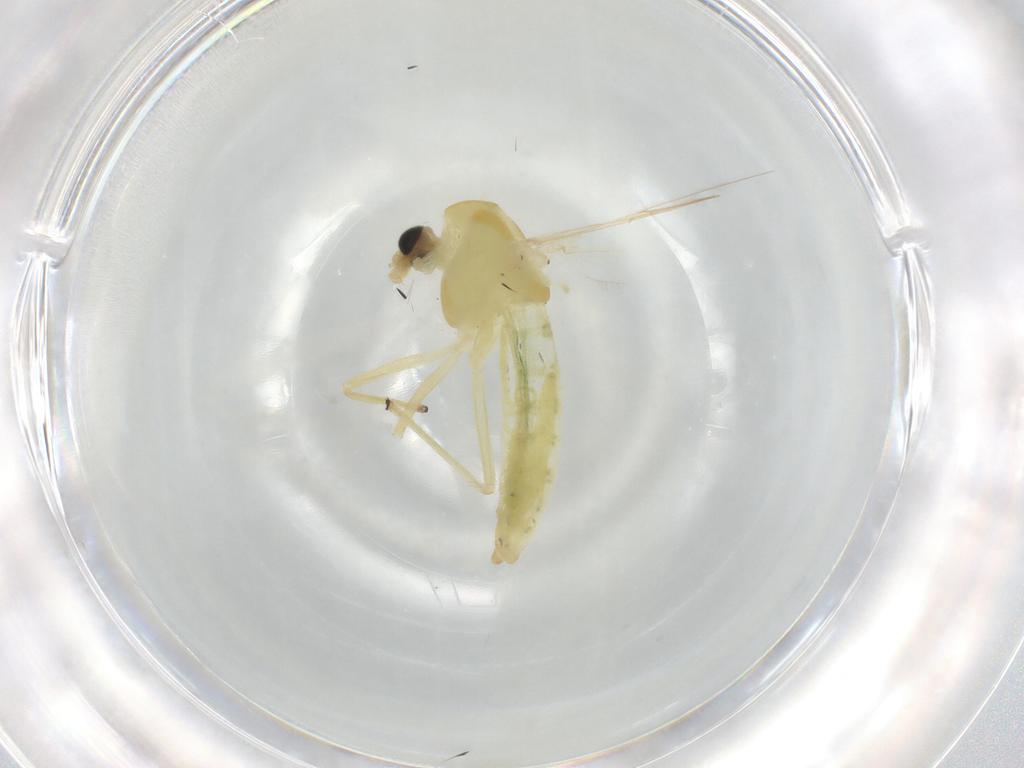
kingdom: Animalia
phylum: Arthropoda
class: Insecta
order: Diptera
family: Chironomidae
